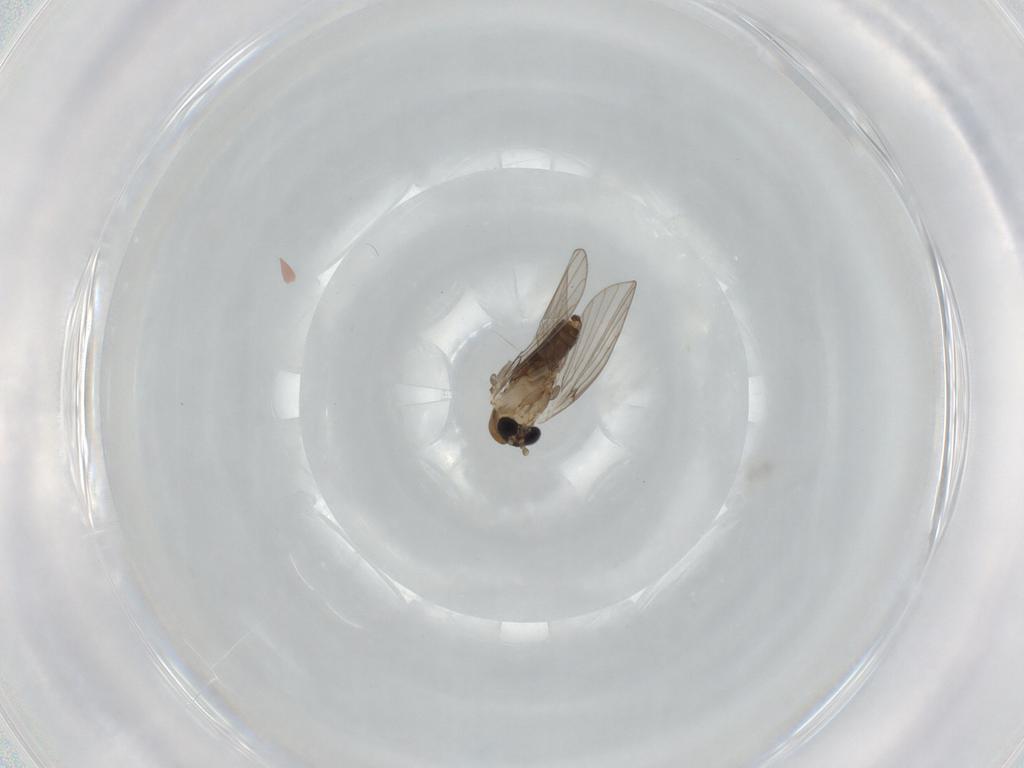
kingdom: Animalia
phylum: Arthropoda
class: Insecta
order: Diptera
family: Psychodidae
